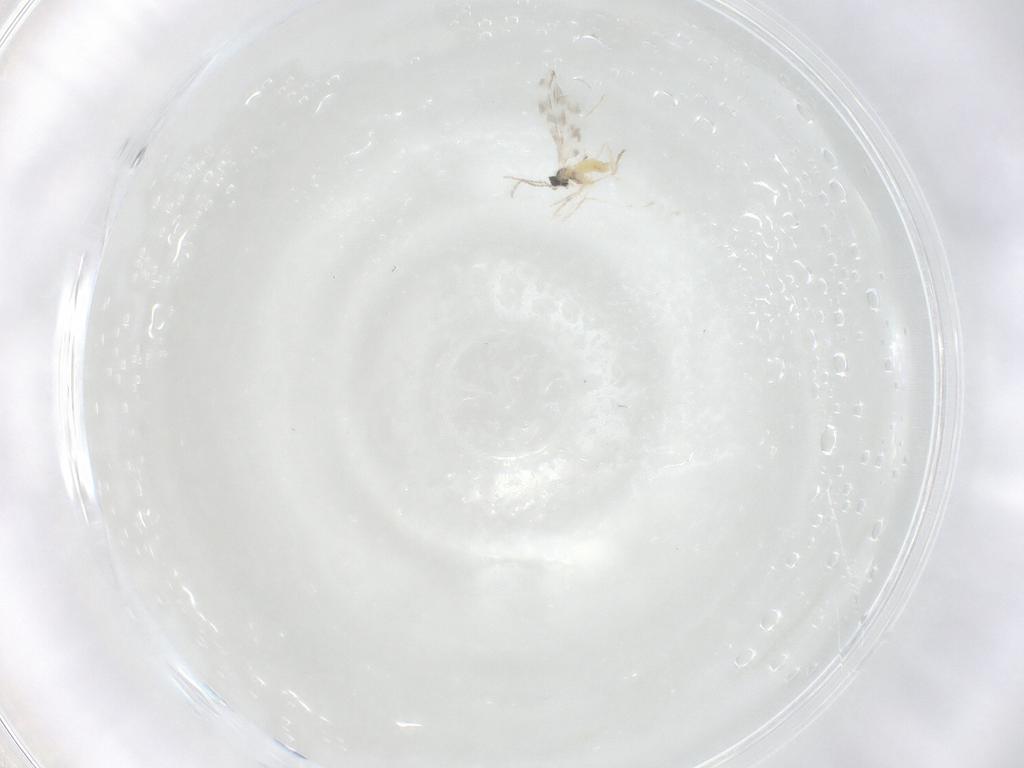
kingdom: Animalia
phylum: Arthropoda
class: Insecta
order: Diptera
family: Cecidomyiidae
